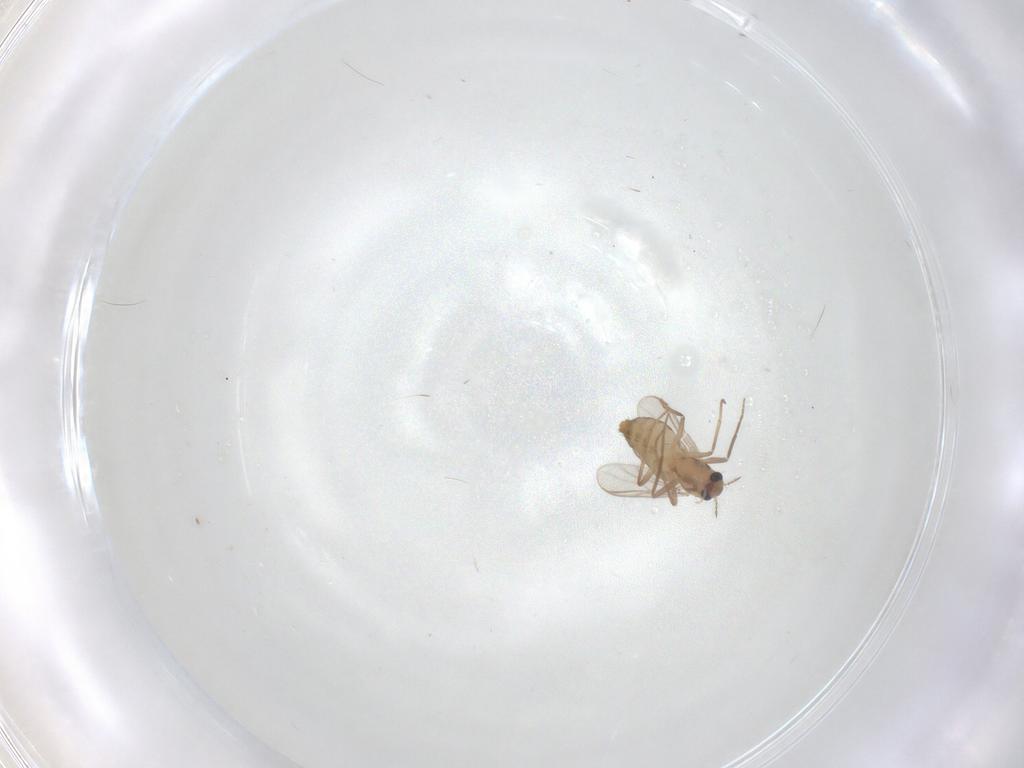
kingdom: Animalia
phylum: Arthropoda
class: Insecta
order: Diptera
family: Chironomidae
